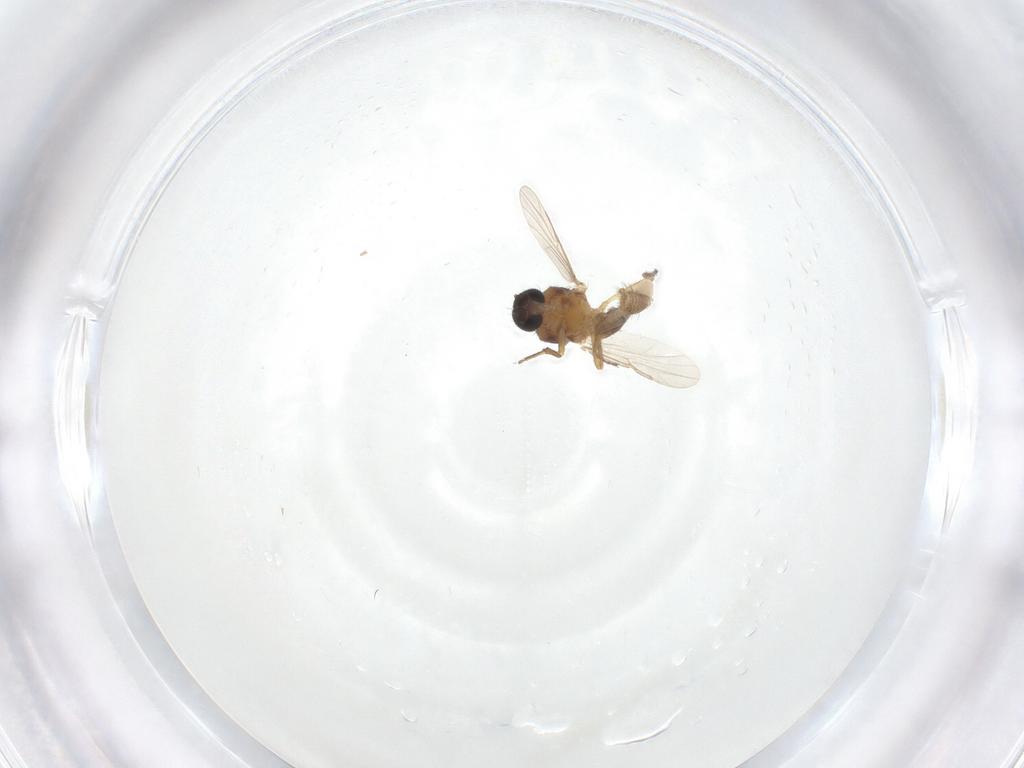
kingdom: Animalia
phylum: Arthropoda
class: Insecta
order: Diptera
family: Ceratopogonidae
